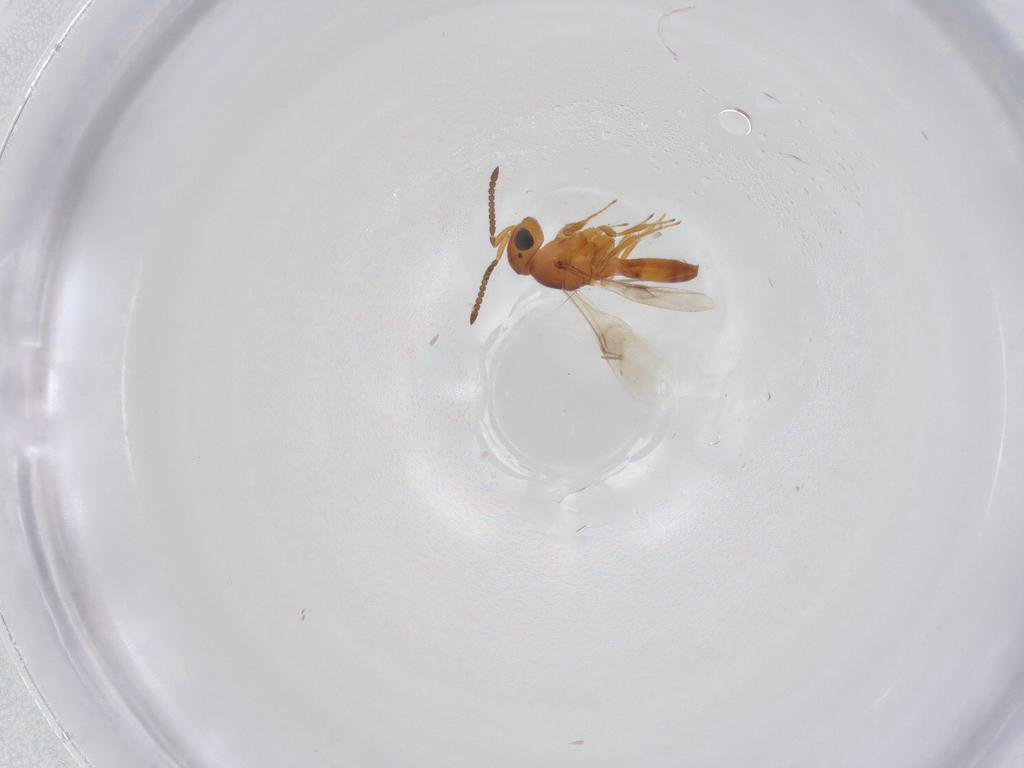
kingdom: Animalia
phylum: Arthropoda
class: Insecta
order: Hymenoptera
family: Scelionidae
